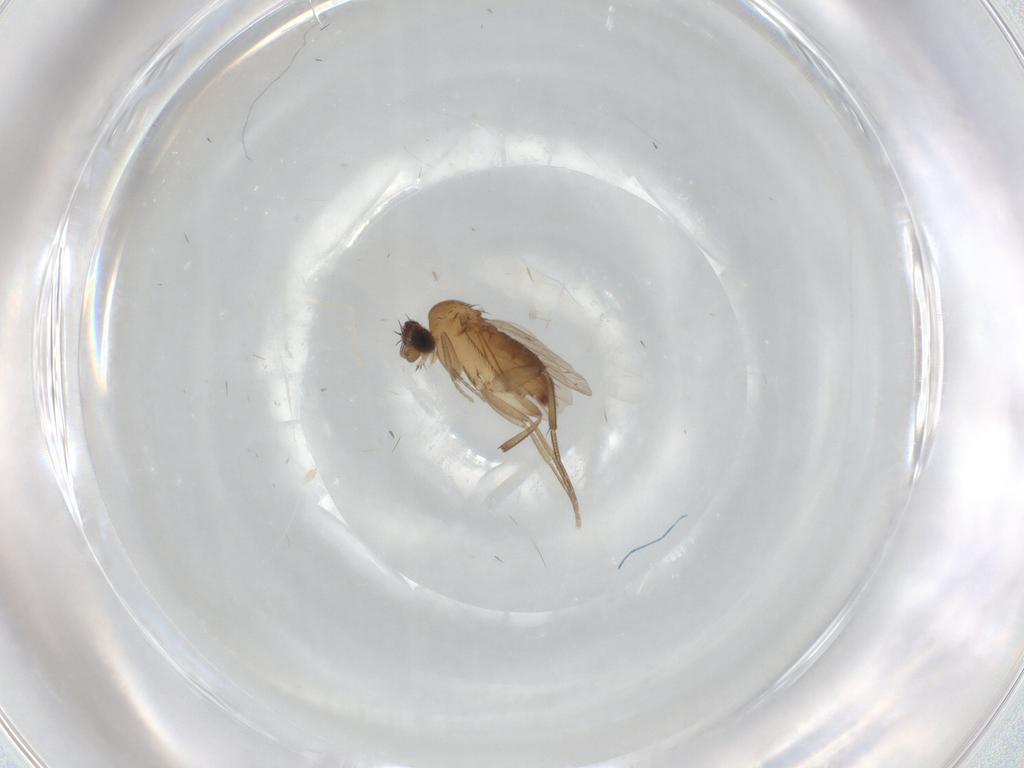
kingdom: Animalia
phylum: Arthropoda
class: Insecta
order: Diptera
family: Phoridae
